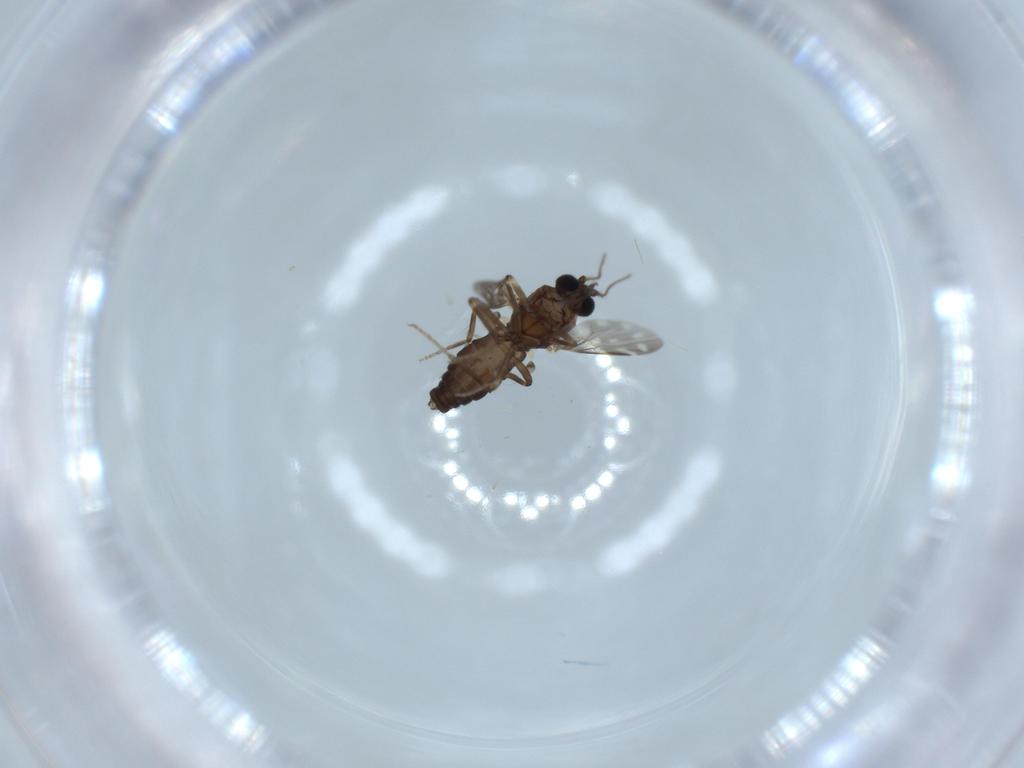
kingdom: Animalia
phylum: Arthropoda
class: Insecta
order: Diptera
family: Ceratopogonidae
